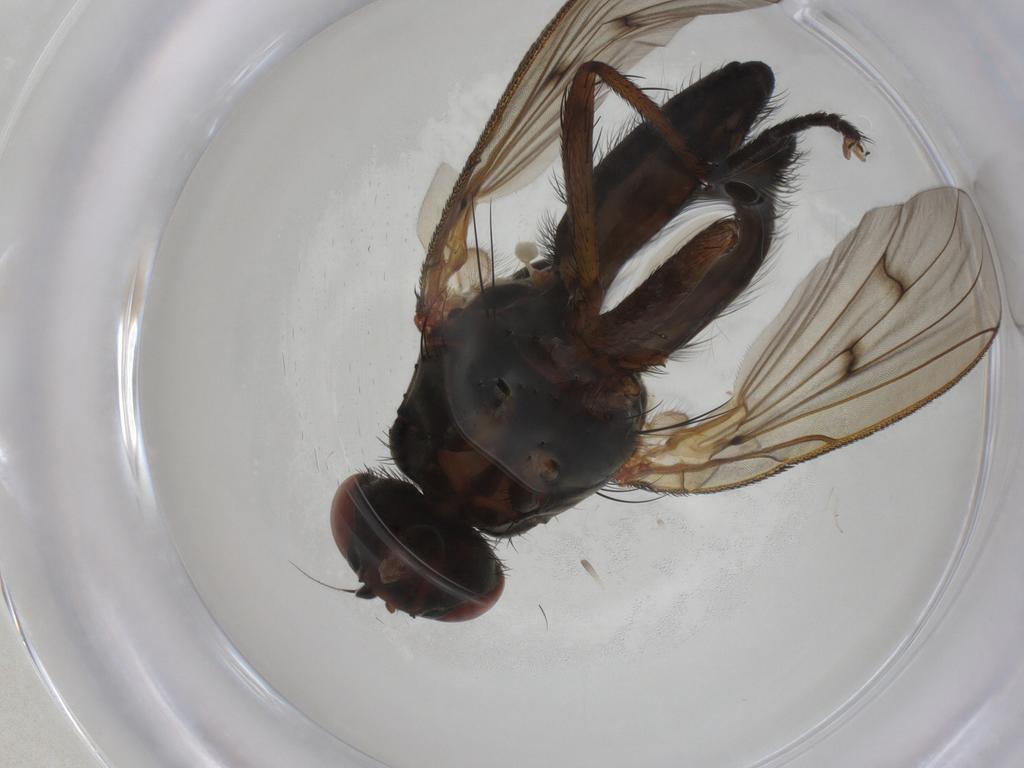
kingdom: Animalia
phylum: Arthropoda
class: Insecta
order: Diptera
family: Anthomyiidae
